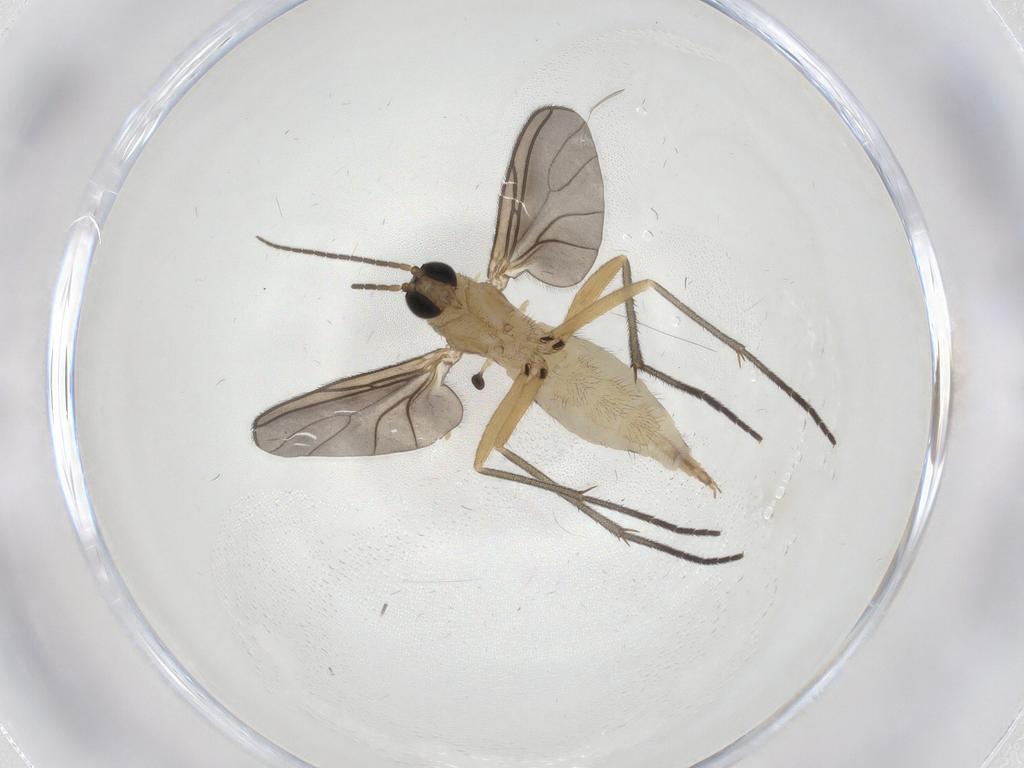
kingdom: Animalia
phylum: Arthropoda
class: Insecta
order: Diptera
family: Sciaridae
